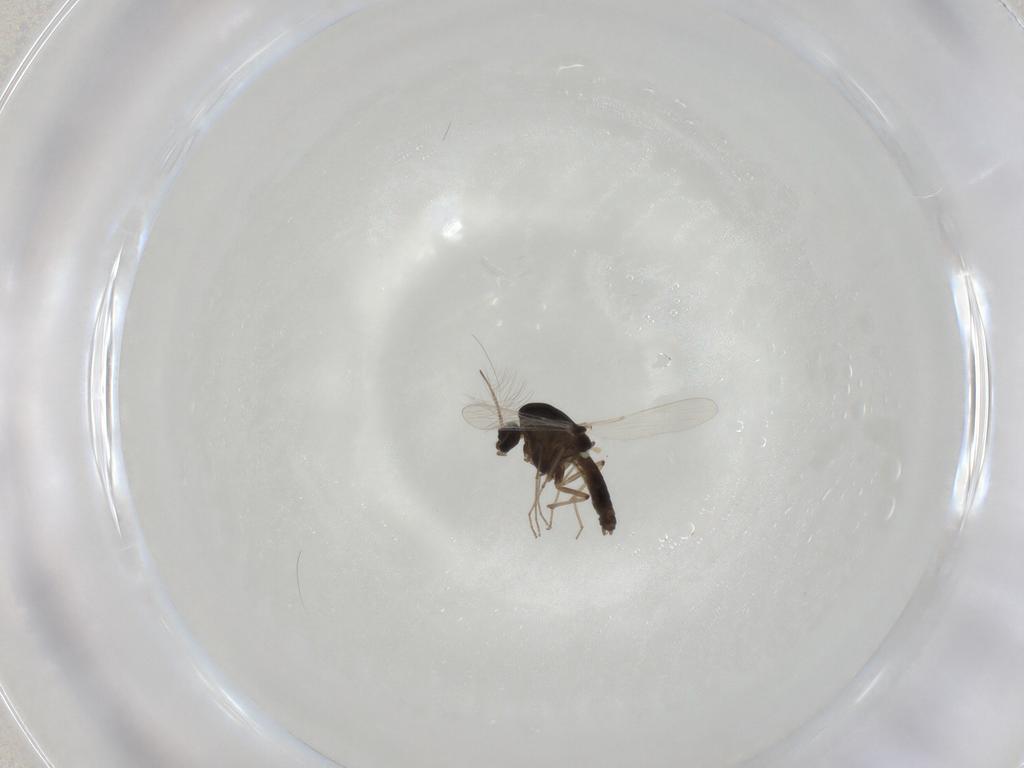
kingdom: Animalia
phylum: Arthropoda
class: Insecta
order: Diptera
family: Chironomidae
